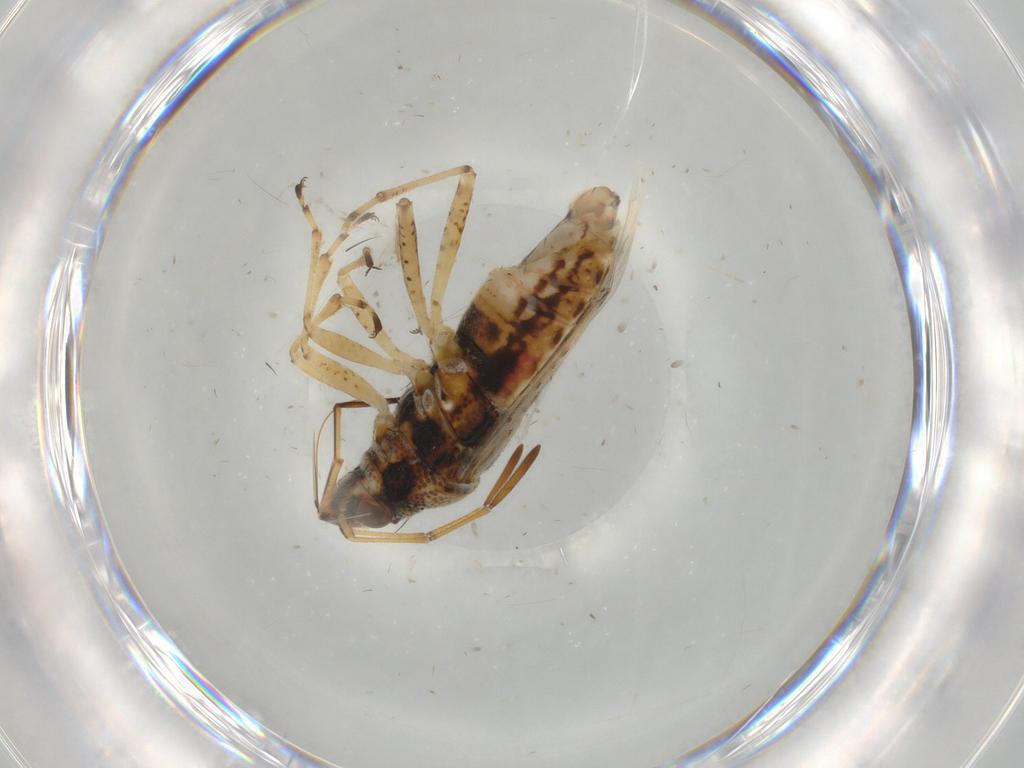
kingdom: Animalia
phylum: Arthropoda
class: Insecta
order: Hemiptera
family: Lygaeidae
